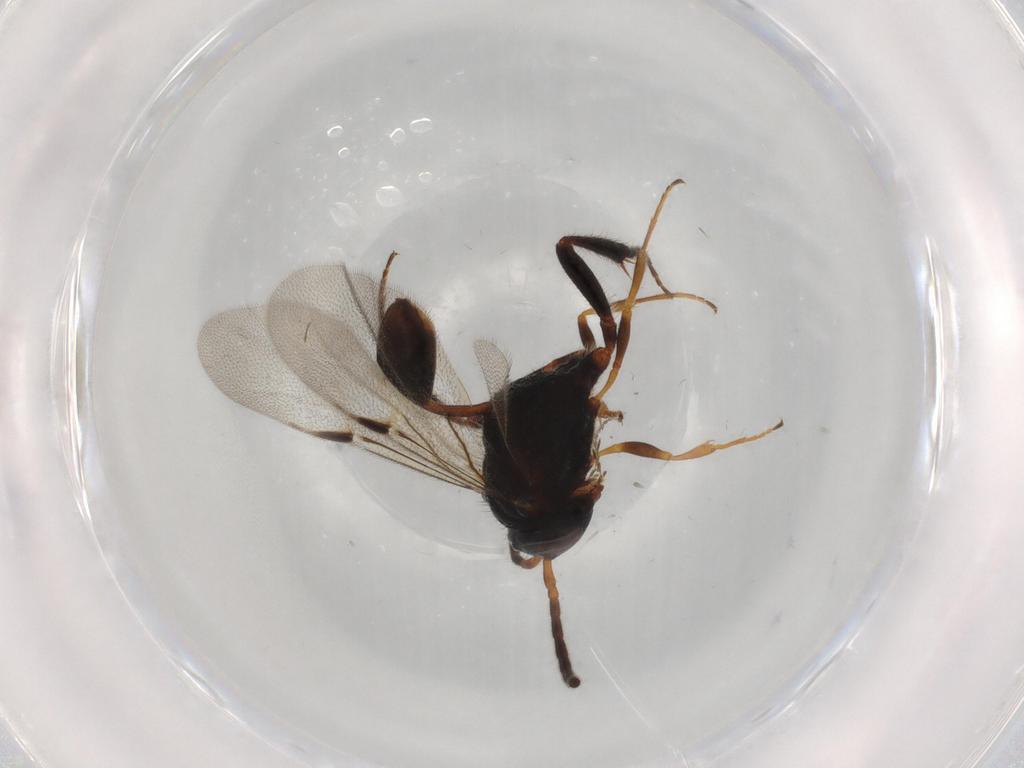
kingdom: Animalia
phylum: Arthropoda
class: Insecta
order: Hymenoptera
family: Evaniidae
